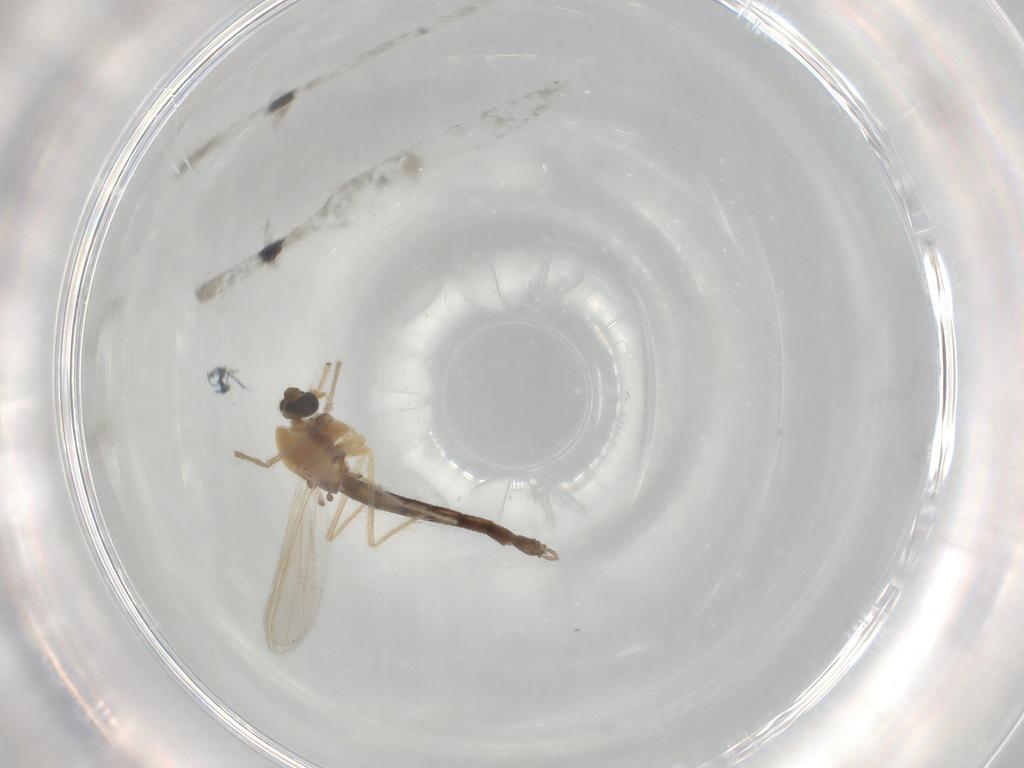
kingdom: Animalia
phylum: Arthropoda
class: Insecta
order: Diptera
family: Chironomidae
